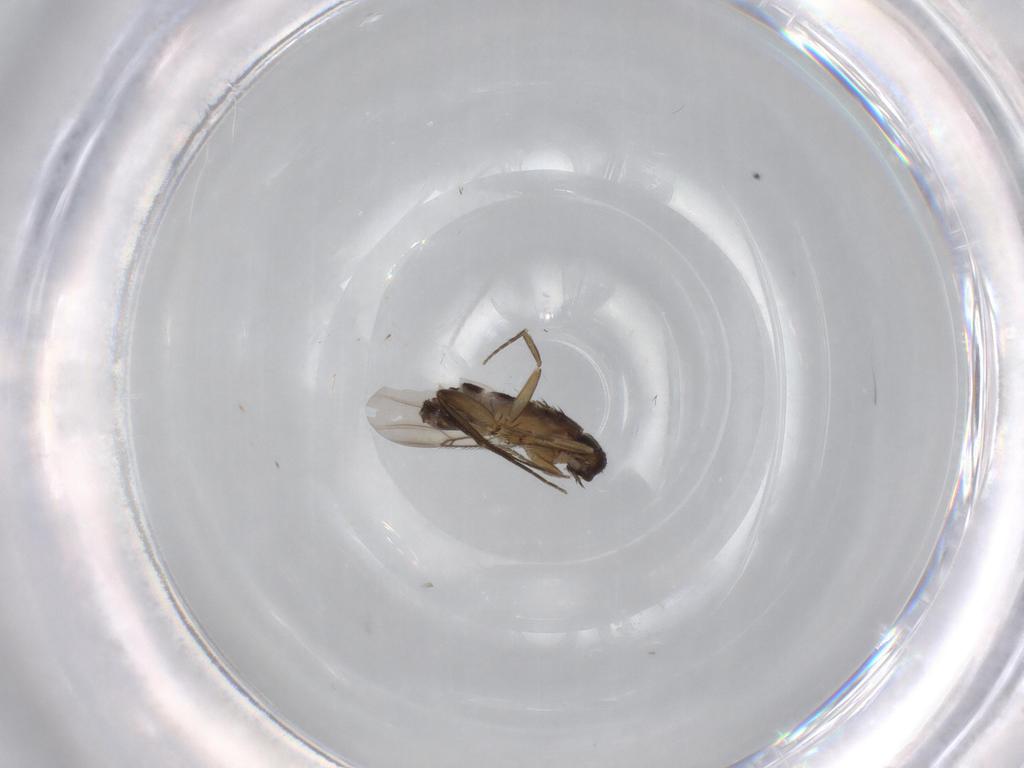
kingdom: Animalia
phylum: Arthropoda
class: Insecta
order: Diptera
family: Phoridae
